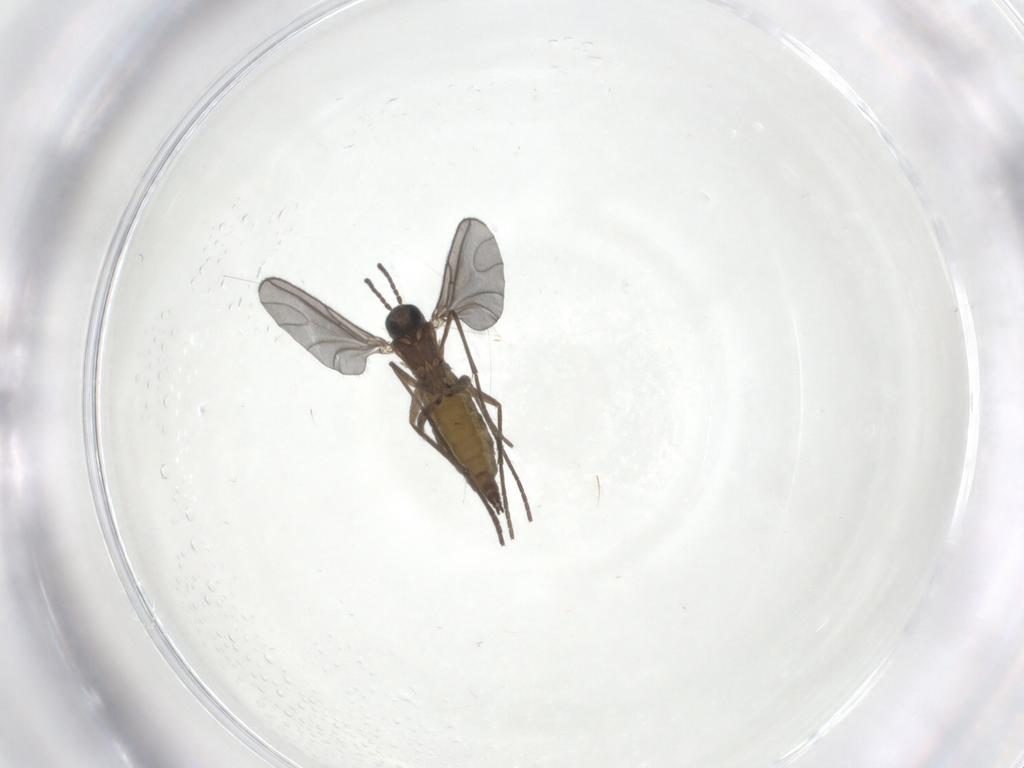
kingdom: Animalia
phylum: Arthropoda
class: Insecta
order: Diptera
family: Sciaridae
